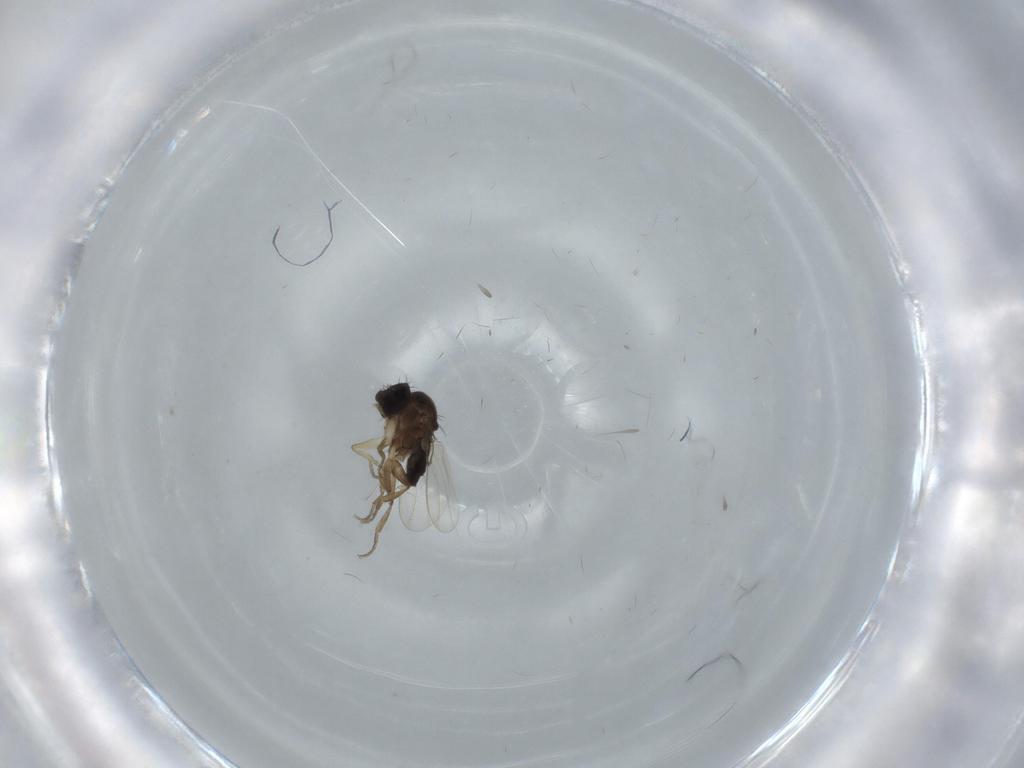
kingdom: Animalia
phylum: Arthropoda
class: Insecta
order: Diptera
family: Phoridae
